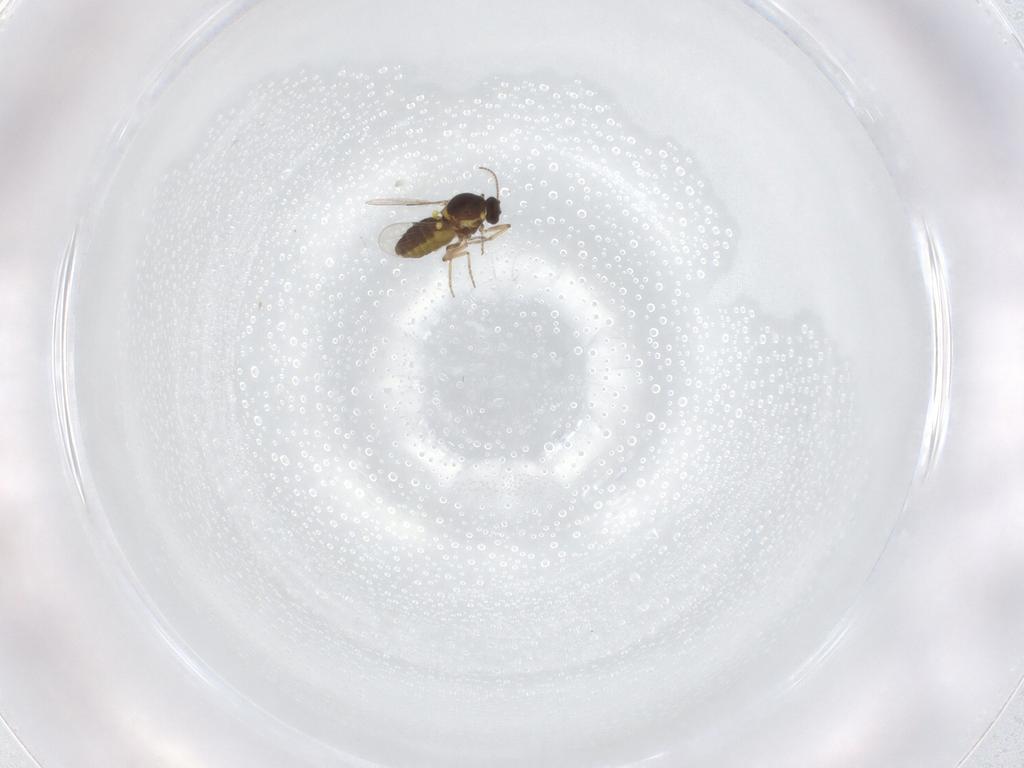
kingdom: Animalia
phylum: Arthropoda
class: Insecta
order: Diptera
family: Ceratopogonidae
